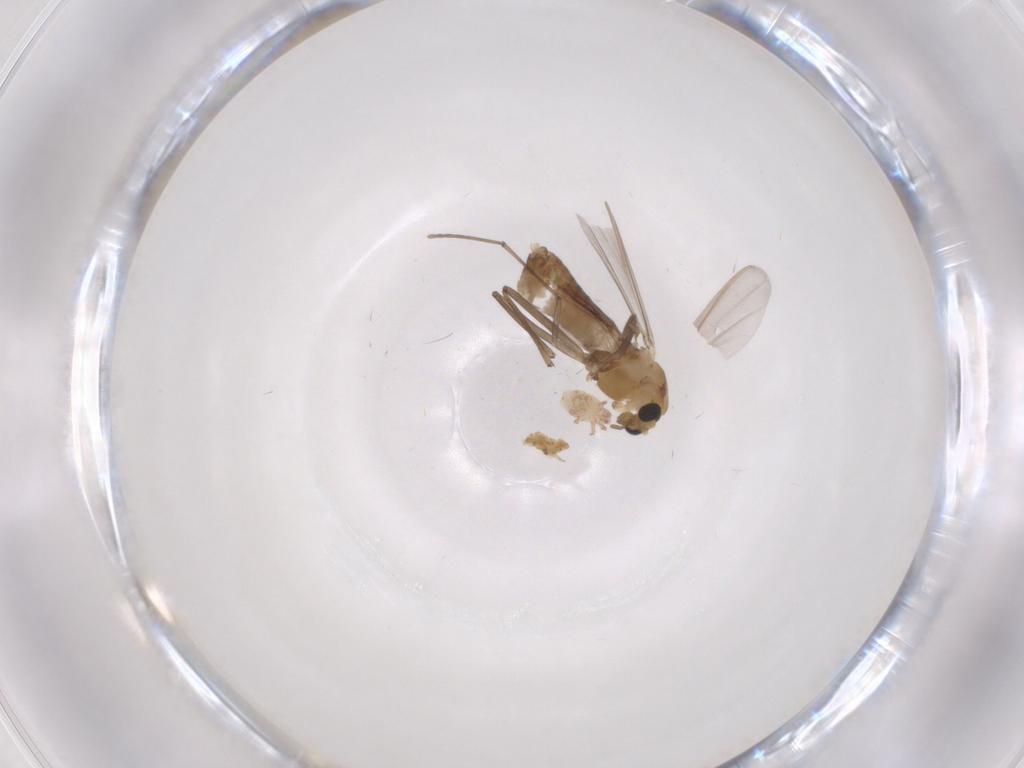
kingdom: Animalia
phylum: Arthropoda
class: Insecta
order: Diptera
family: Chironomidae
